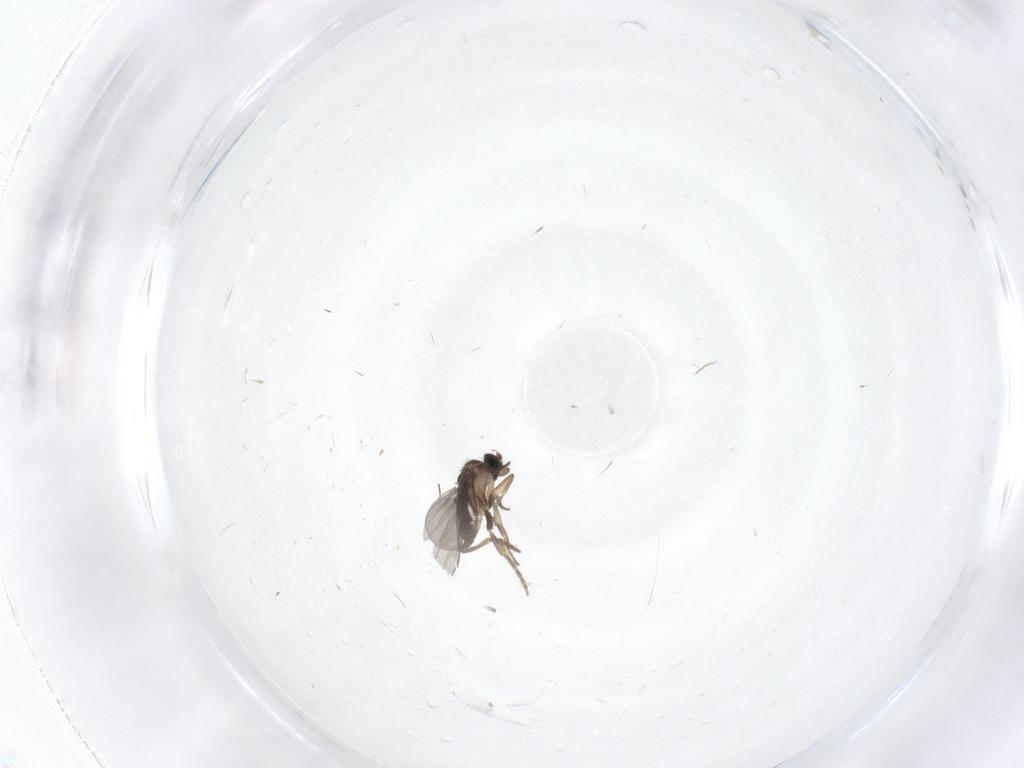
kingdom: Animalia
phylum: Arthropoda
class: Insecta
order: Diptera
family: Chironomidae
